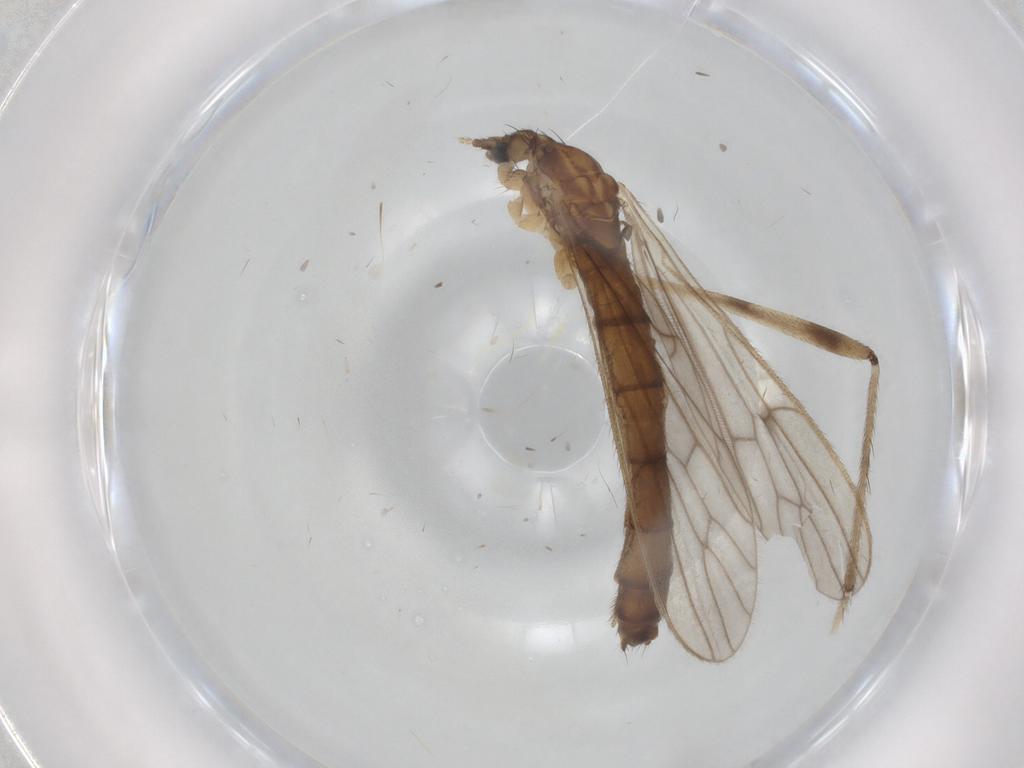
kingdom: Animalia
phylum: Arthropoda
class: Insecta
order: Diptera
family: Limoniidae
